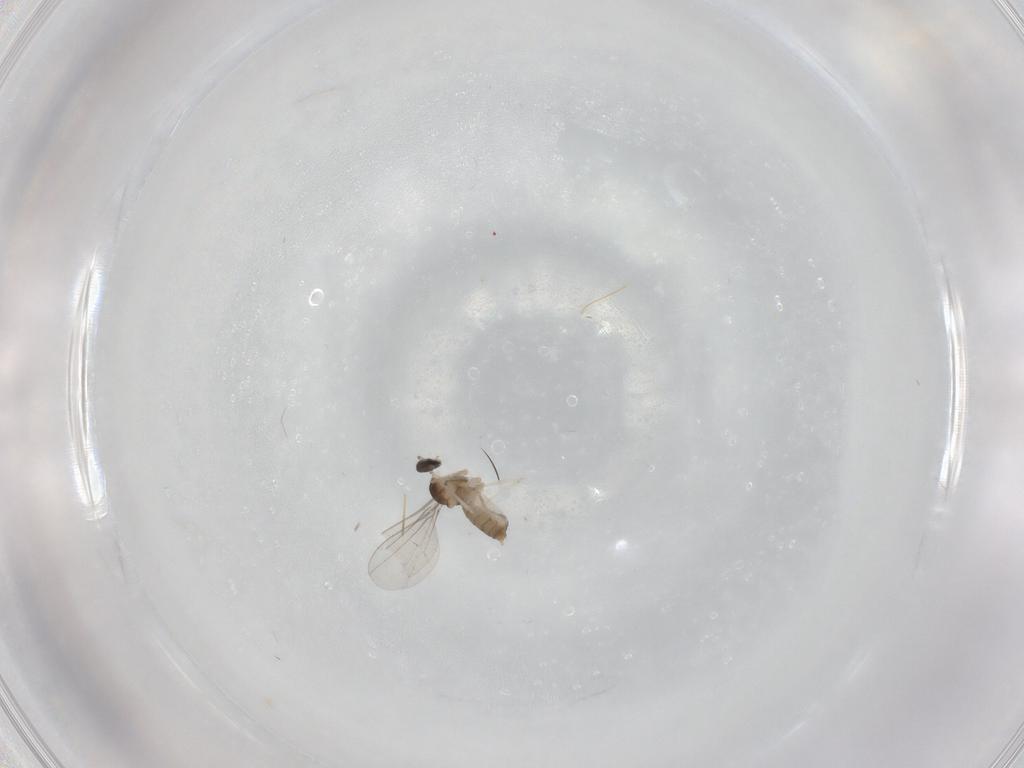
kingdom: Animalia
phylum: Arthropoda
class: Insecta
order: Diptera
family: Cecidomyiidae
